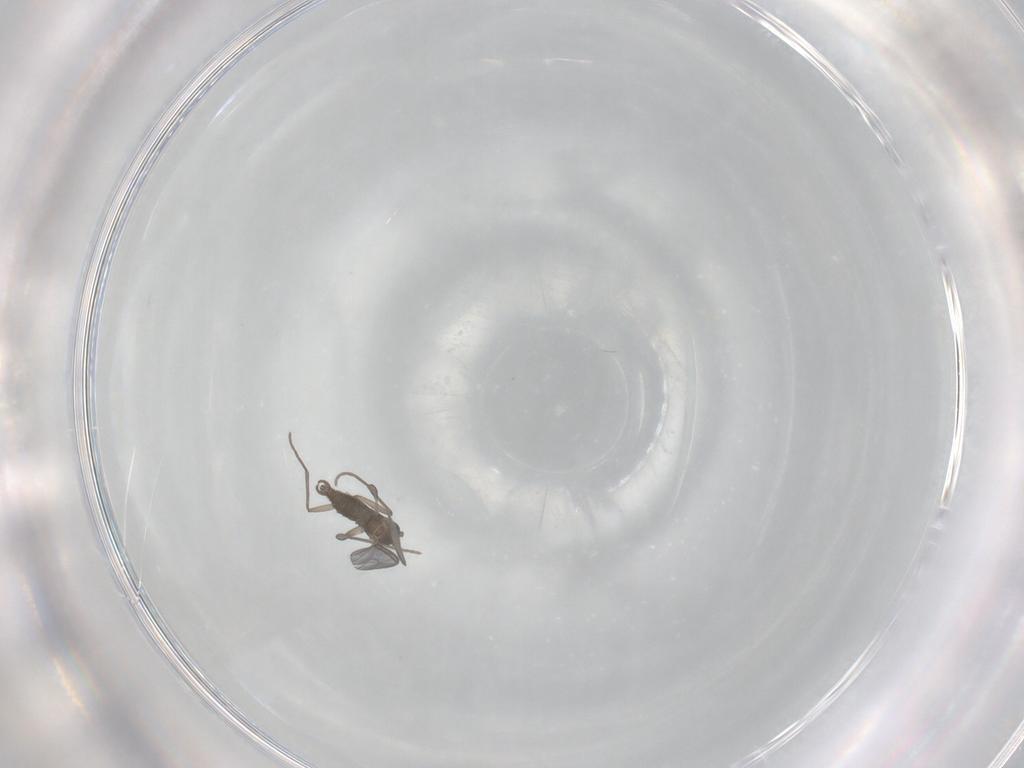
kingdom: Animalia
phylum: Arthropoda
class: Insecta
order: Diptera
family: Sciaridae
